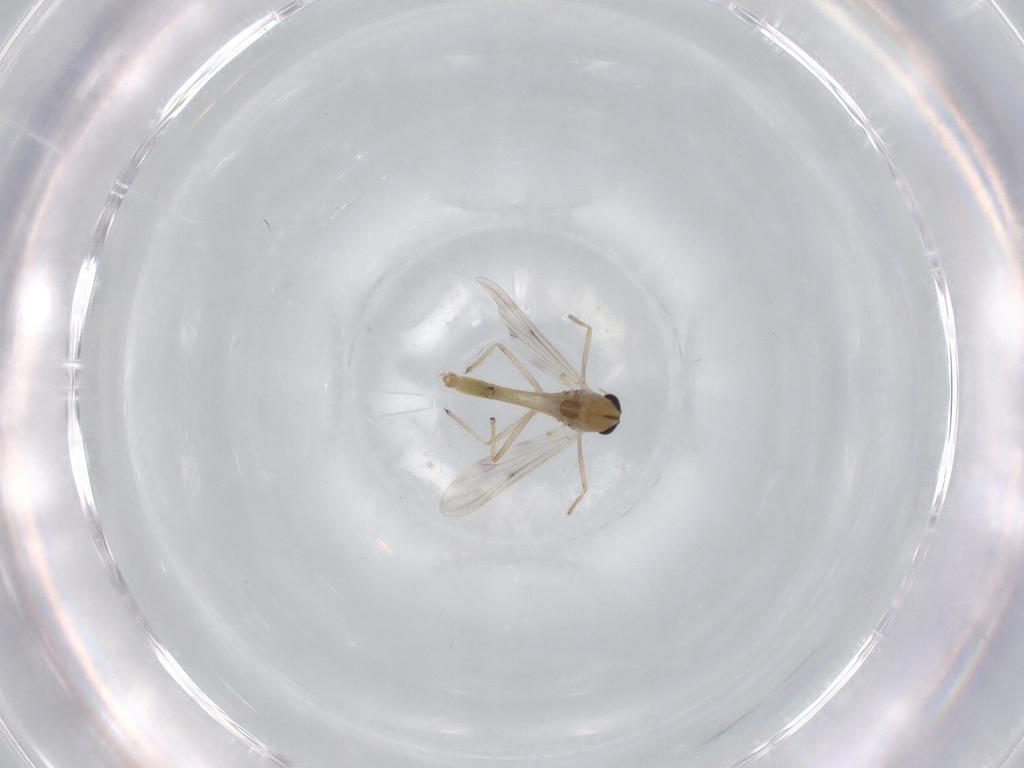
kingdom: Animalia
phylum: Arthropoda
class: Insecta
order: Diptera
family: Chironomidae
